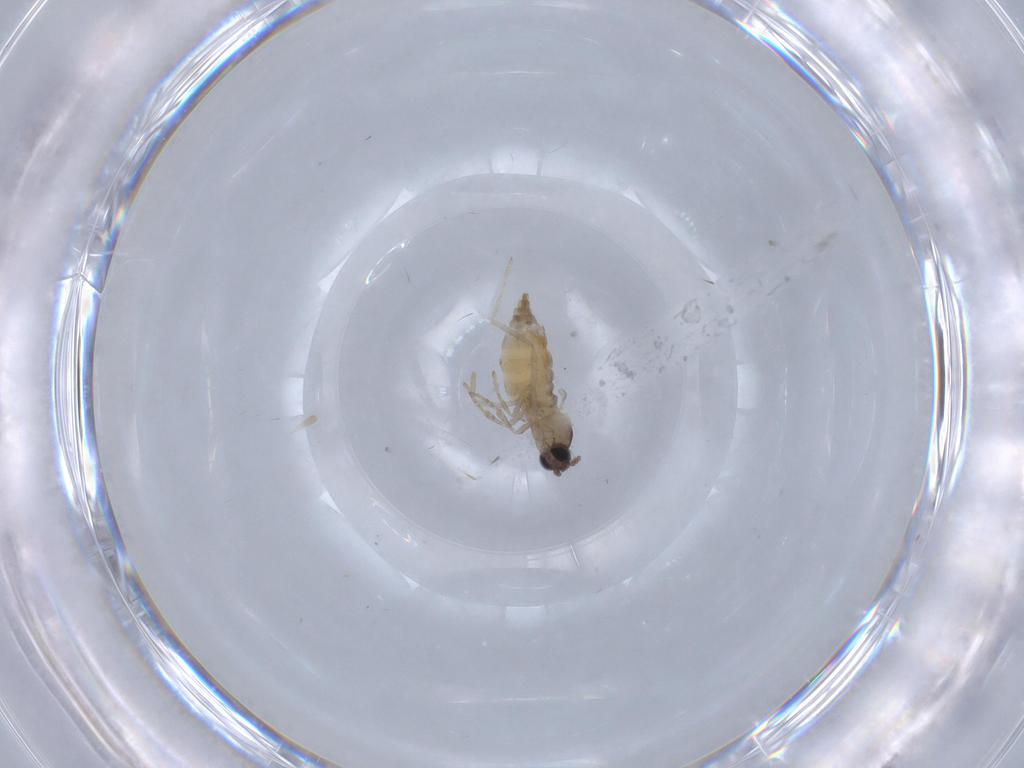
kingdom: Animalia
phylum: Arthropoda
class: Insecta
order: Diptera
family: Cecidomyiidae
